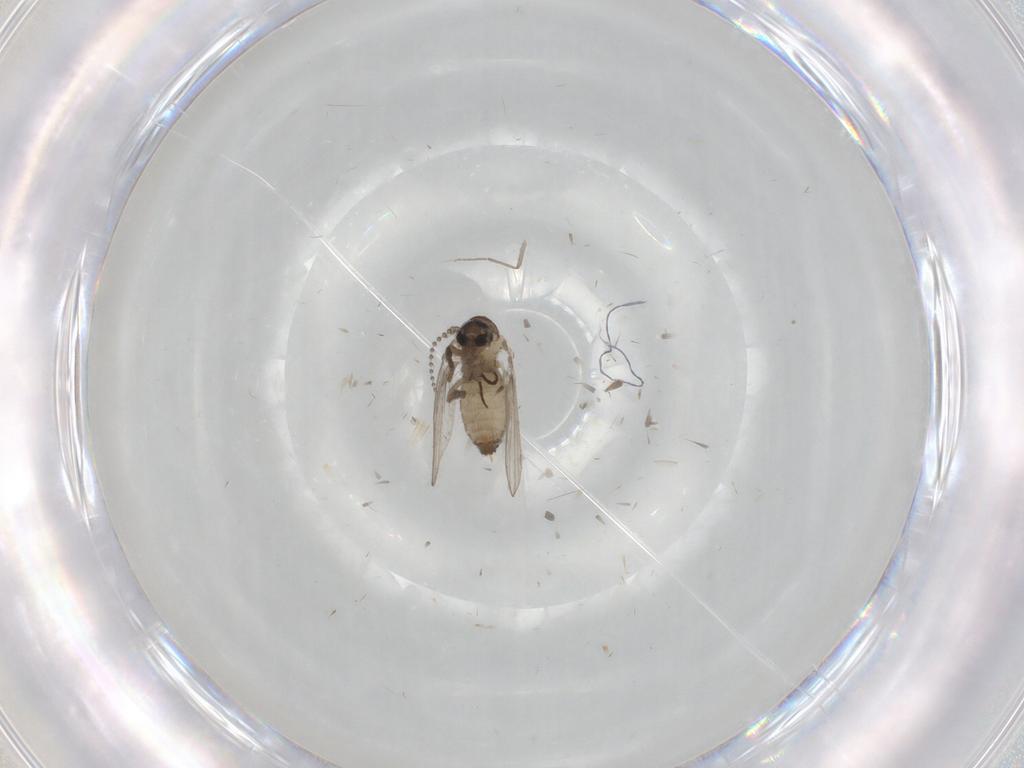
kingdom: Animalia
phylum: Arthropoda
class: Insecta
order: Diptera
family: Psychodidae
